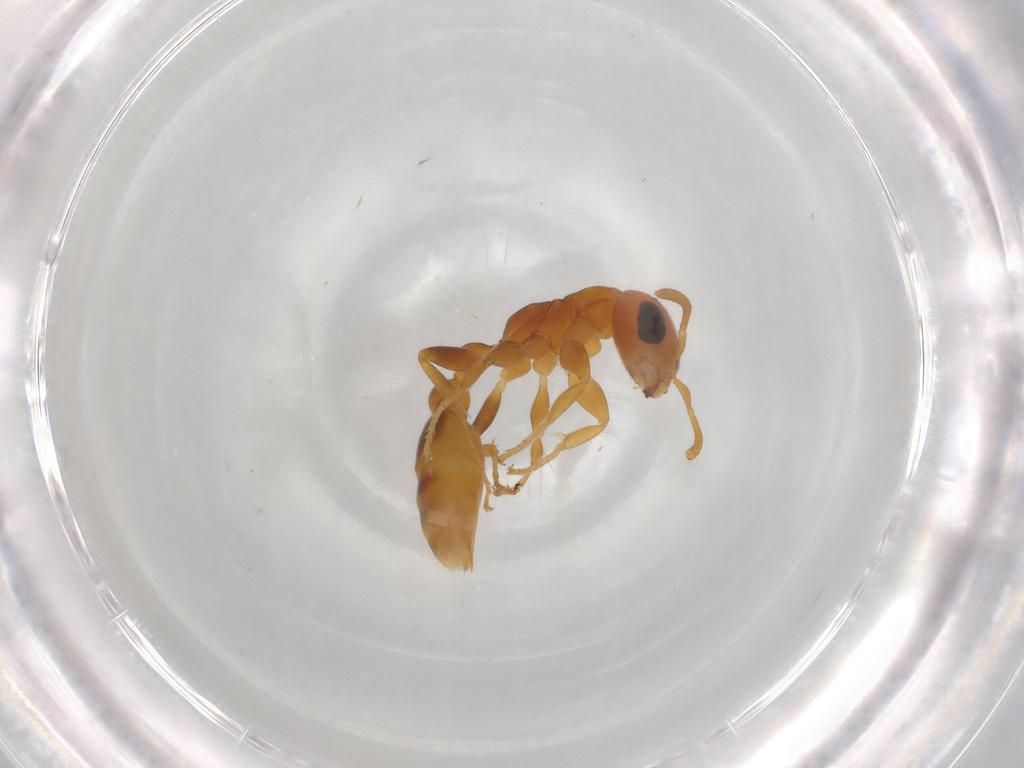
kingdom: Animalia
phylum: Arthropoda
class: Insecta
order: Hymenoptera
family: Formicidae
